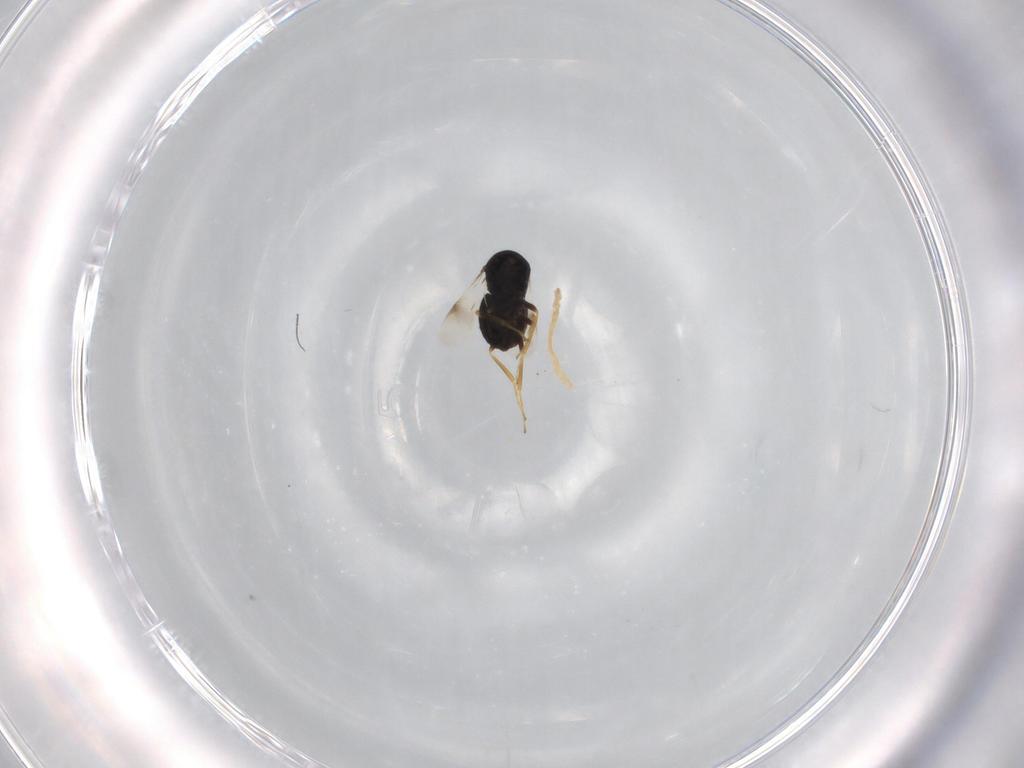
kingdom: Animalia
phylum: Arthropoda
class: Insecta
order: Hymenoptera
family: Scelionidae
